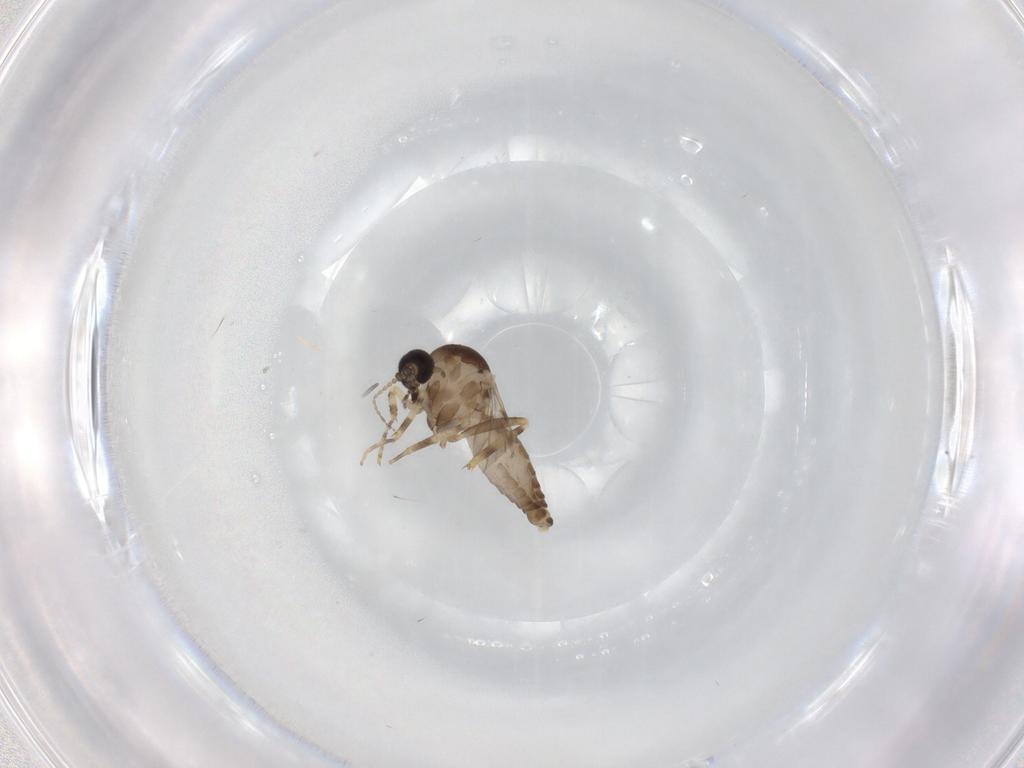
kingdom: Animalia
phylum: Arthropoda
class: Insecta
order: Diptera
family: Ceratopogonidae
